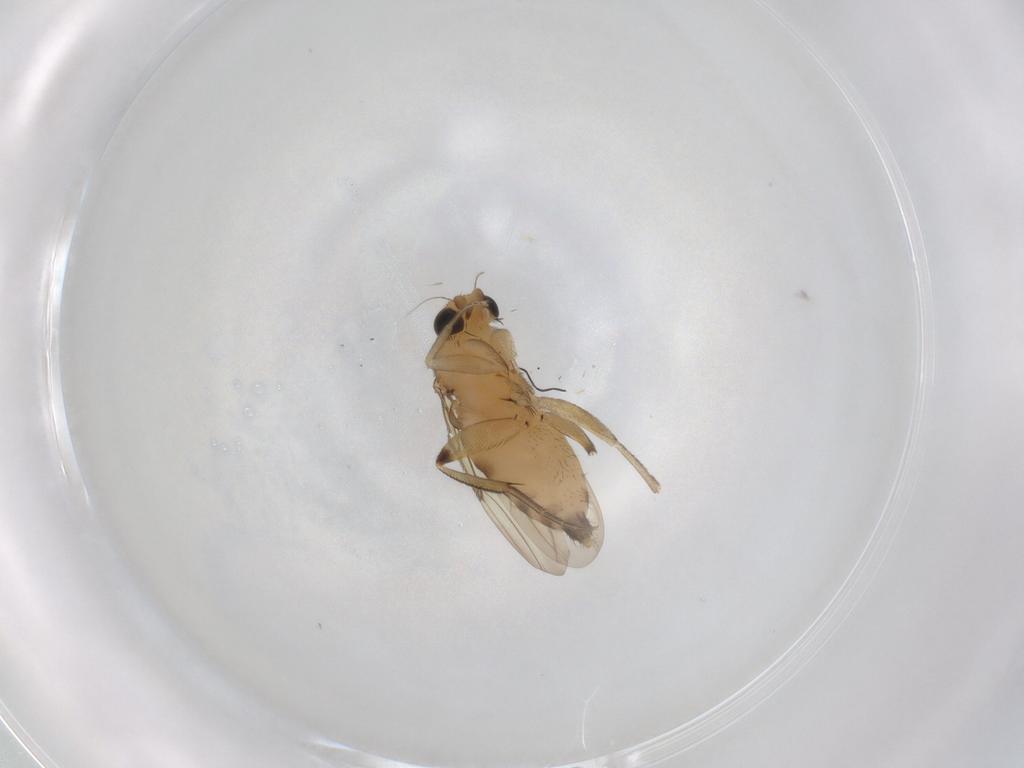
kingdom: Animalia
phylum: Arthropoda
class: Insecta
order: Diptera
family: Phoridae
